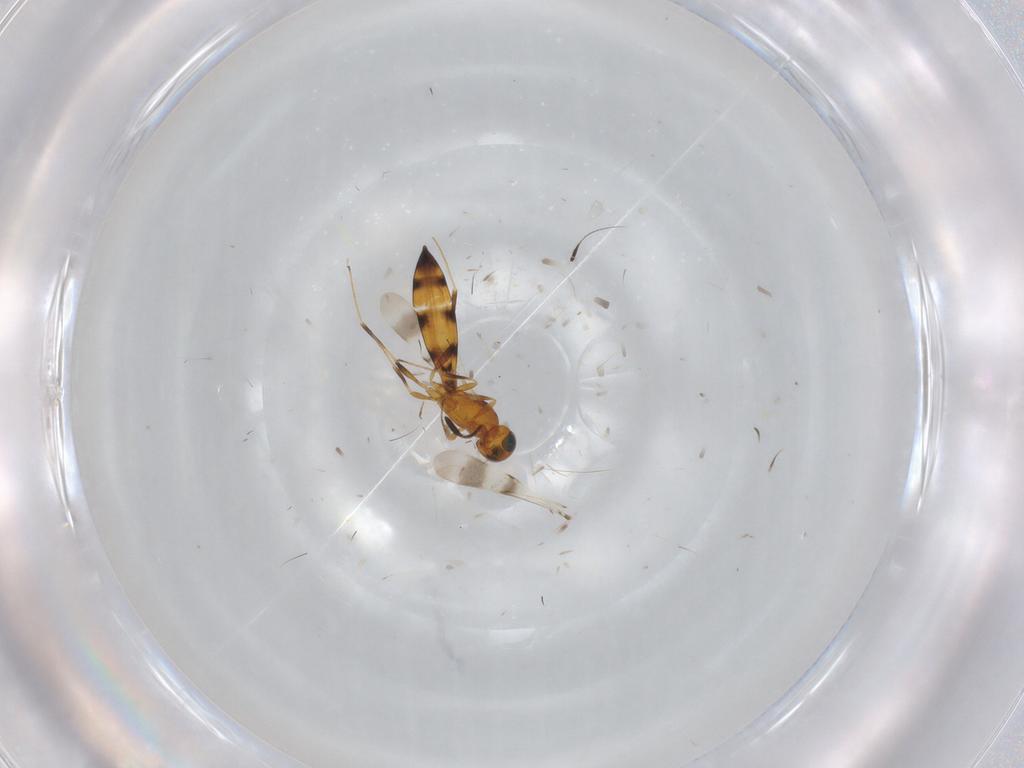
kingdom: Animalia
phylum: Arthropoda
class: Insecta
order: Hymenoptera
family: Scelionidae
